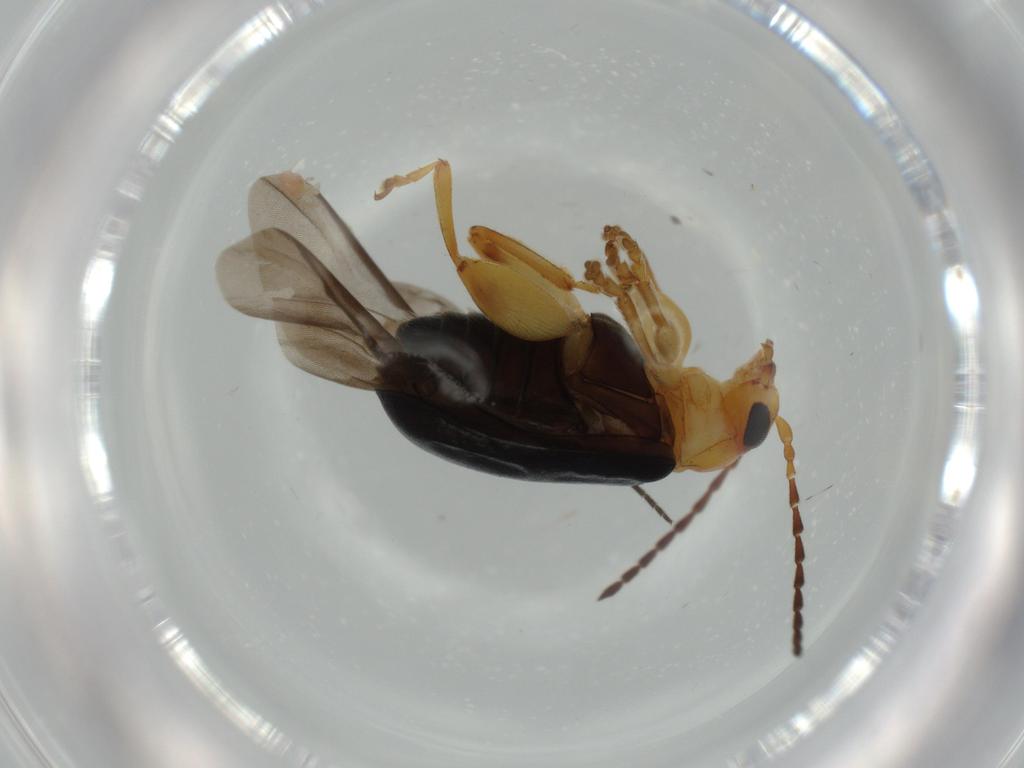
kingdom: Animalia
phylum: Arthropoda
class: Insecta
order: Coleoptera
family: Chrysomelidae
